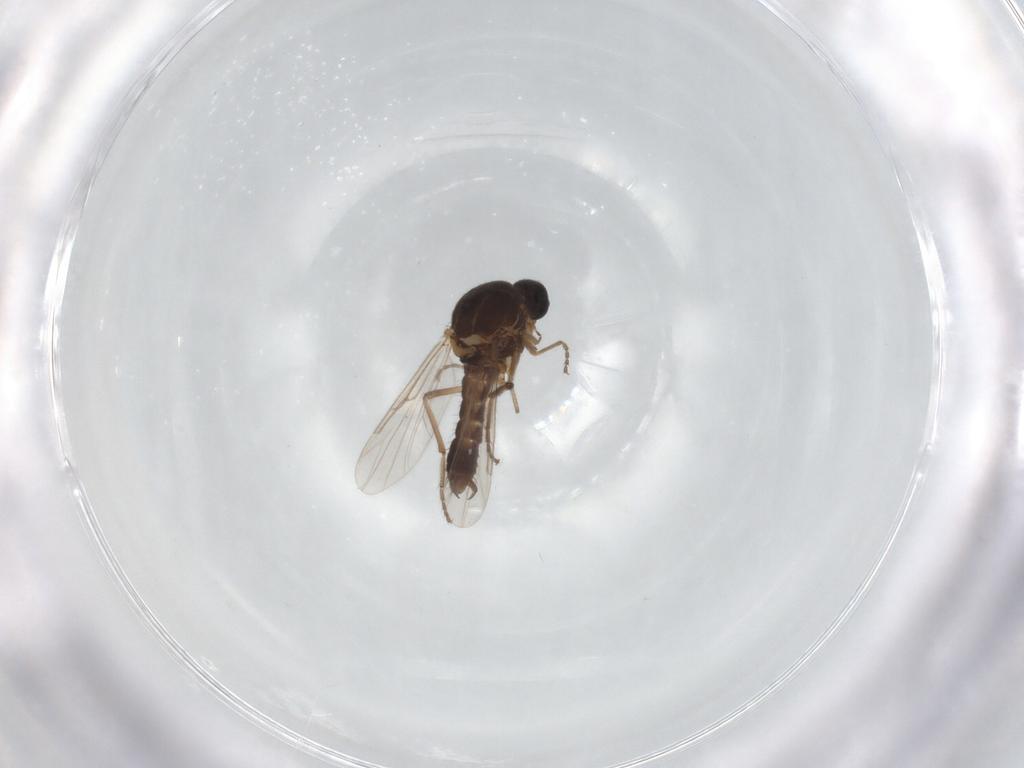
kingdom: Animalia
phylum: Arthropoda
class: Insecta
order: Diptera
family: Ceratopogonidae
